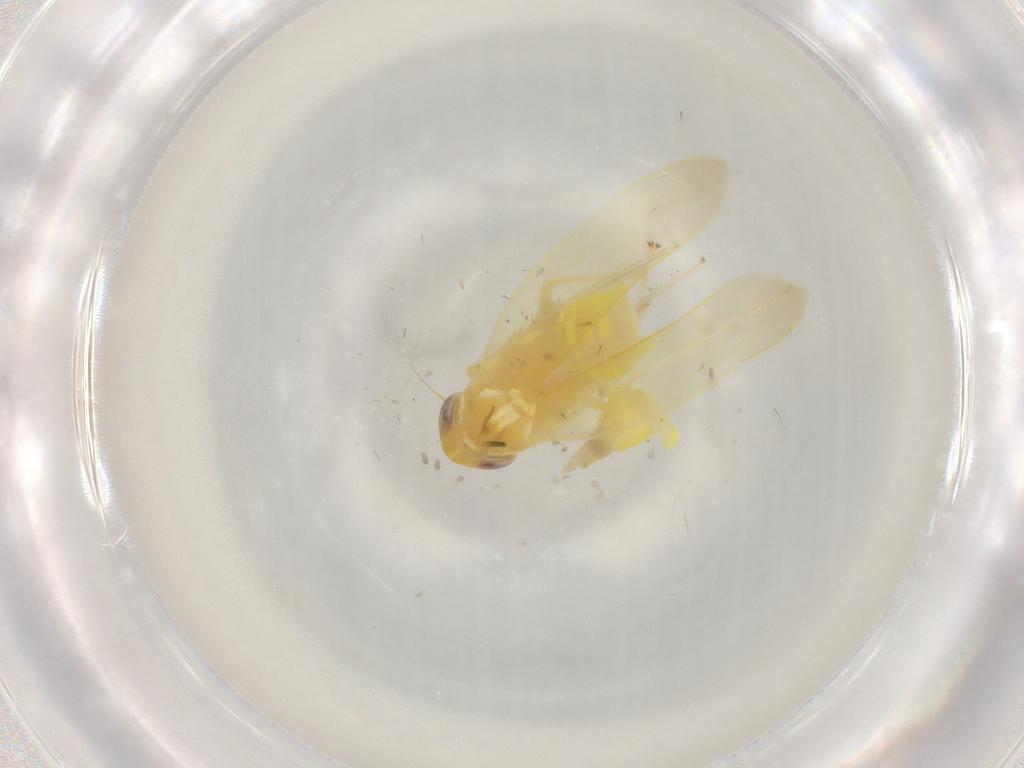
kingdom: Animalia
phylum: Arthropoda
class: Insecta
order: Hemiptera
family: Cicadellidae
